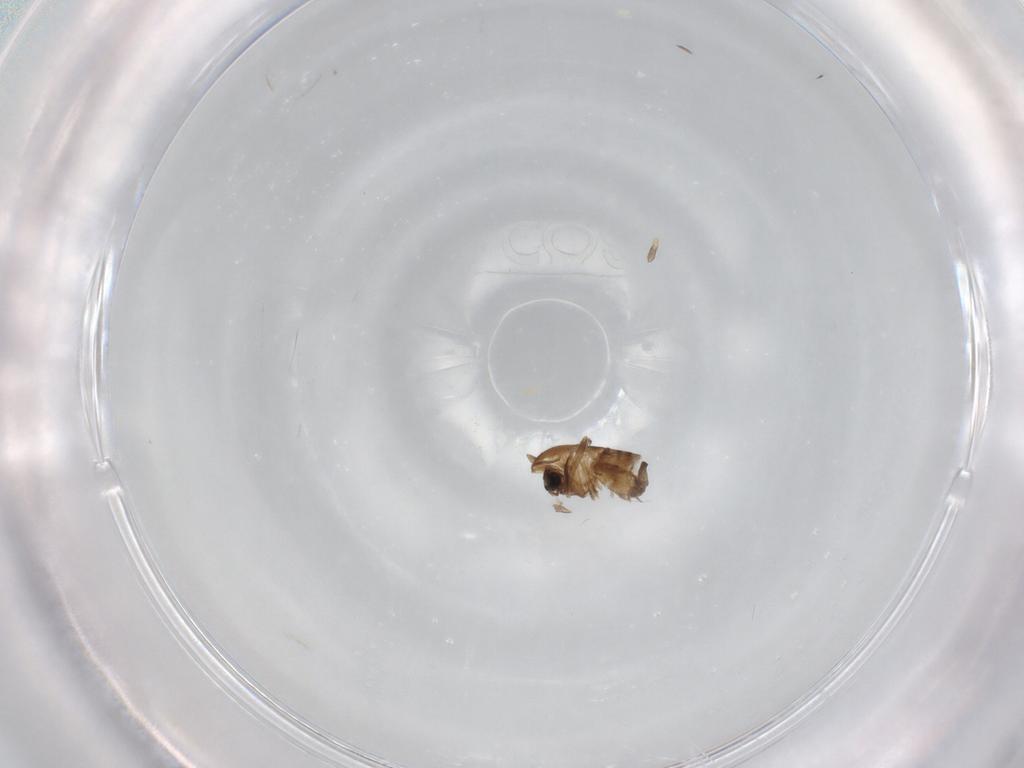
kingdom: Animalia
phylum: Arthropoda
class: Insecta
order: Diptera
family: Chironomidae
